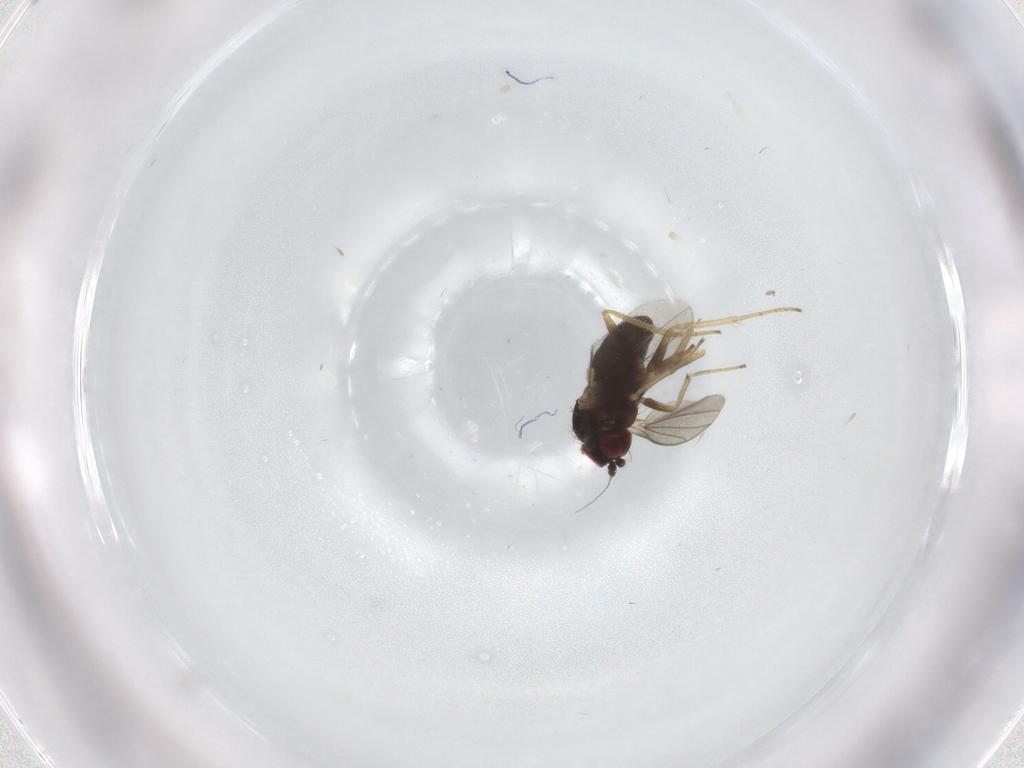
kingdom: Animalia
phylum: Arthropoda
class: Insecta
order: Diptera
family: Dolichopodidae
